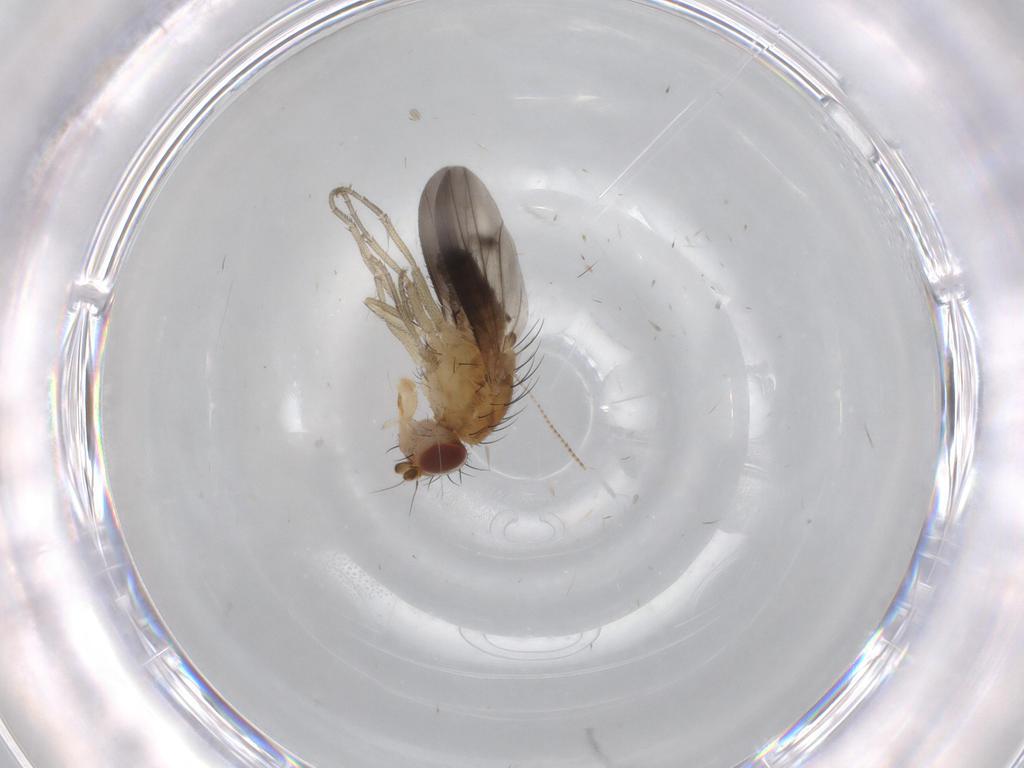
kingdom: Animalia
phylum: Arthropoda
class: Insecta
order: Diptera
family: Heleomyzidae
